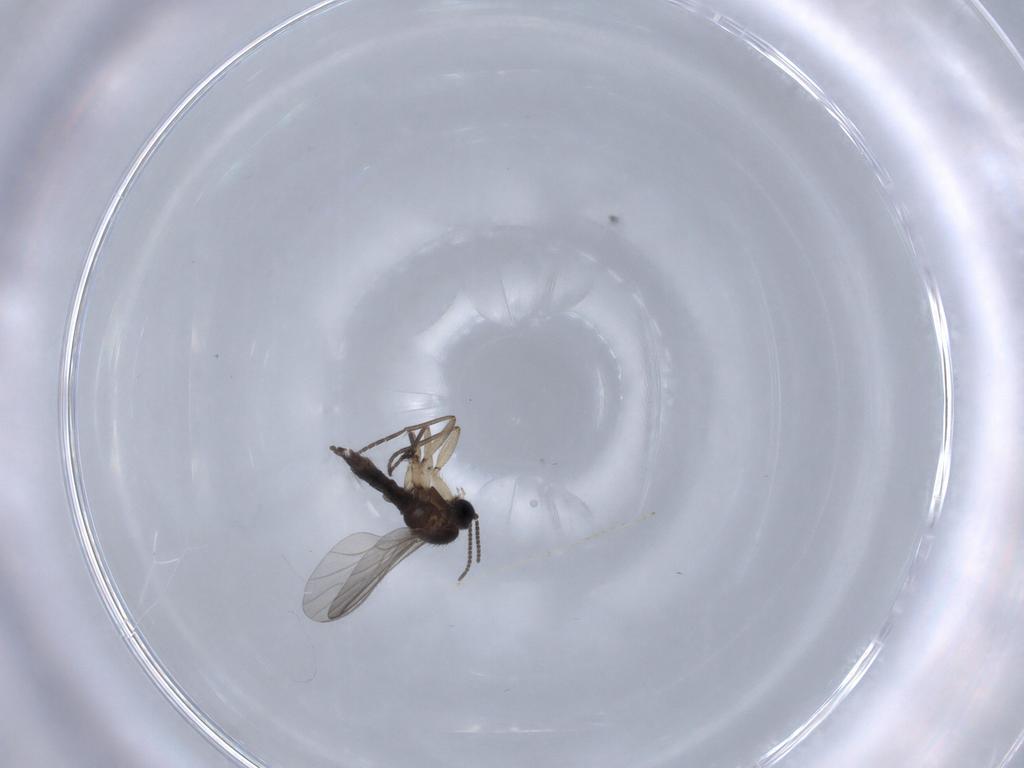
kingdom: Animalia
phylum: Arthropoda
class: Insecta
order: Diptera
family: Sciaridae
